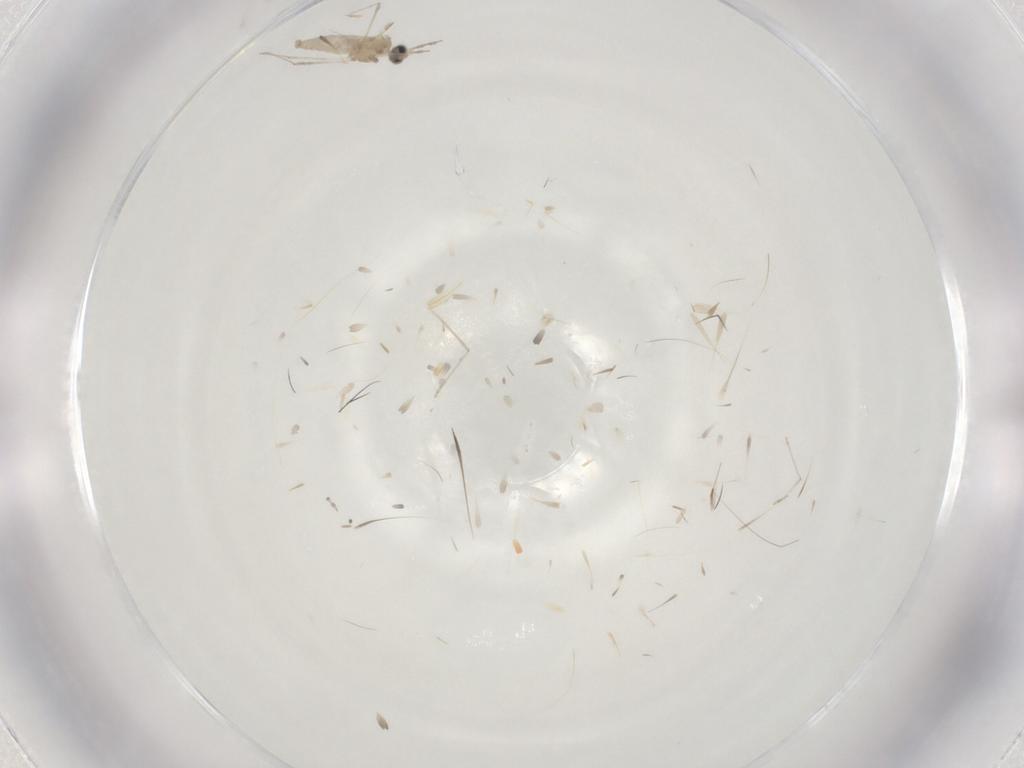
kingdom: Animalia
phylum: Arthropoda
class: Insecta
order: Diptera
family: Cecidomyiidae
